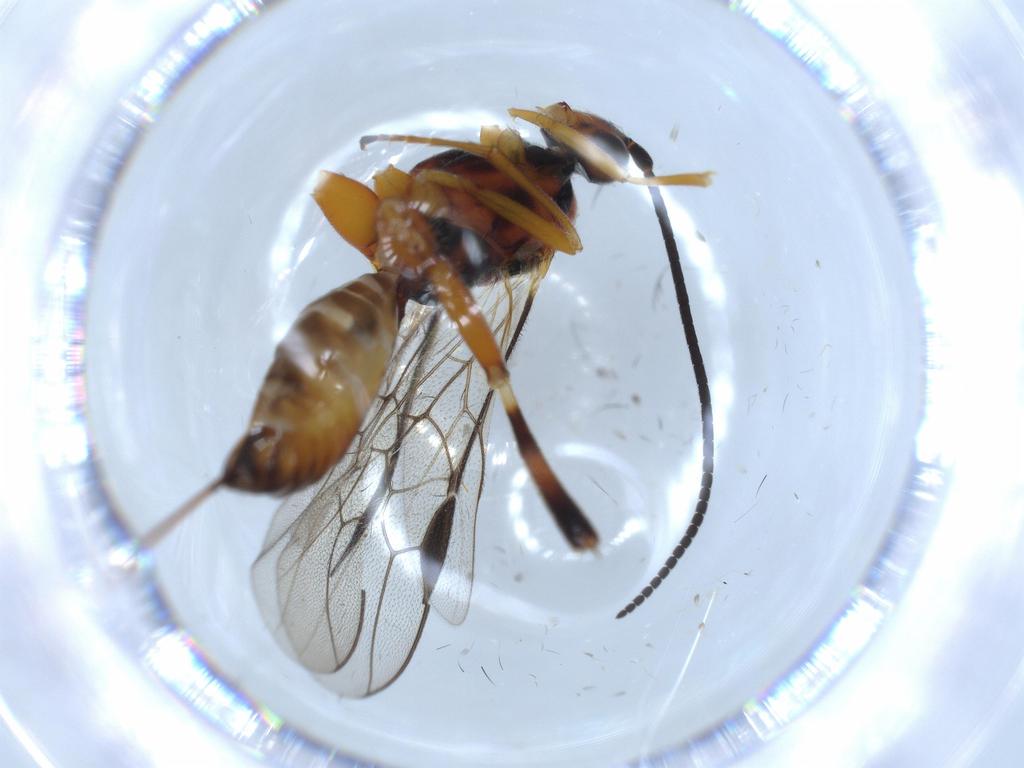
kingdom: Animalia
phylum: Arthropoda
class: Insecta
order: Hymenoptera
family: Braconidae
